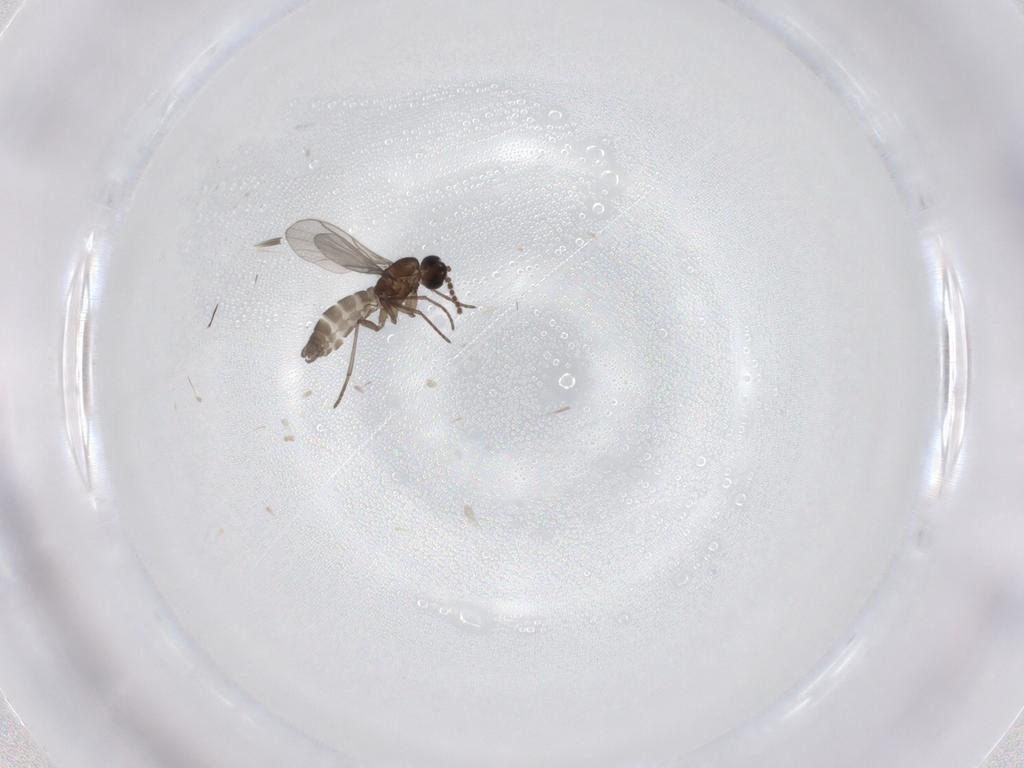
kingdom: Animalia
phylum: Arthropoda
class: Insecta
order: Diptera
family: Sciaridae
